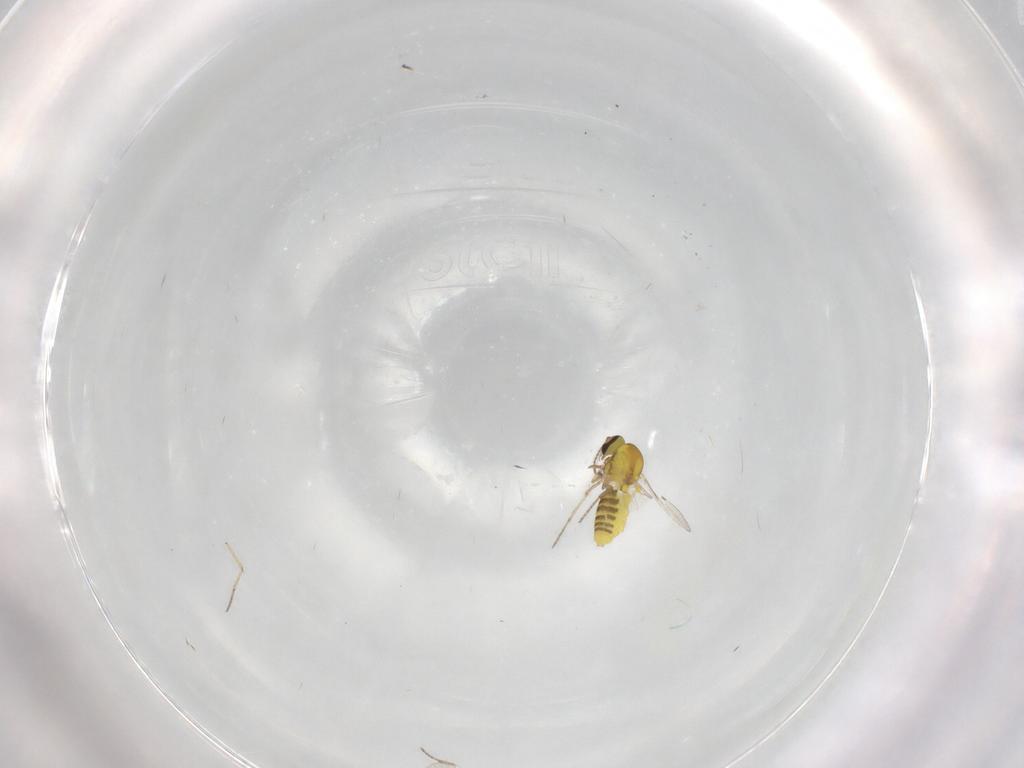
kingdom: Animalia
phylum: Arthropoda
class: Insecta
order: Diptera
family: Ceratopogonidae
